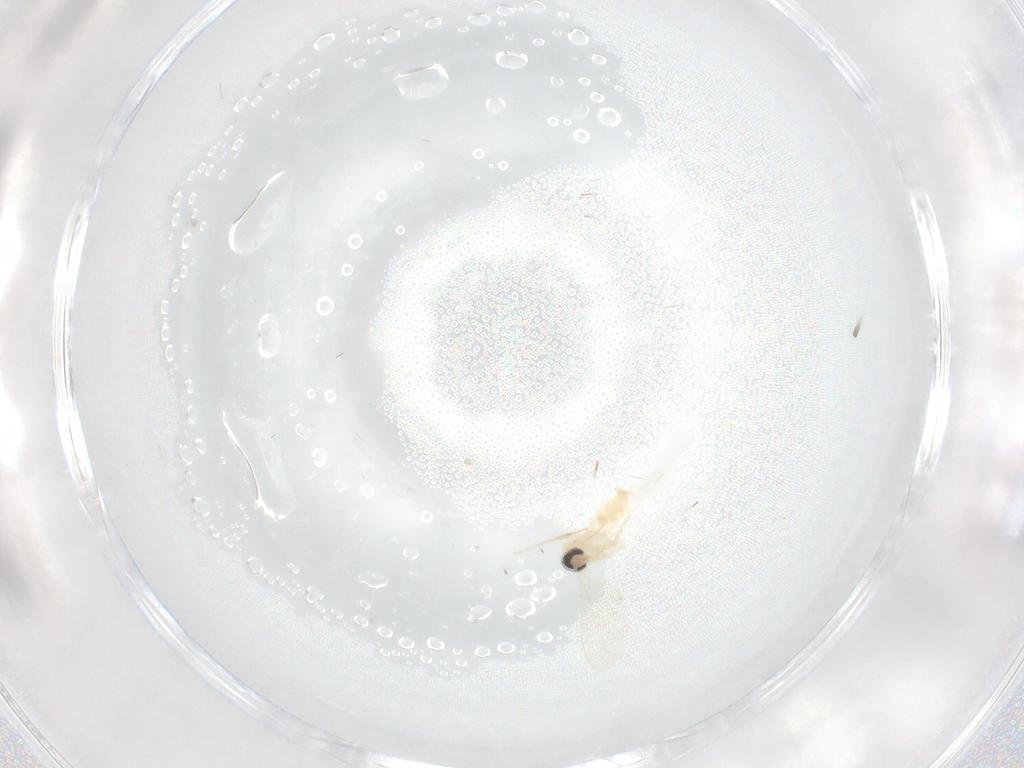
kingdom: Animalia
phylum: Arthropoda
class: Insecta
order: Diptera
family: Cecidomyiidae
